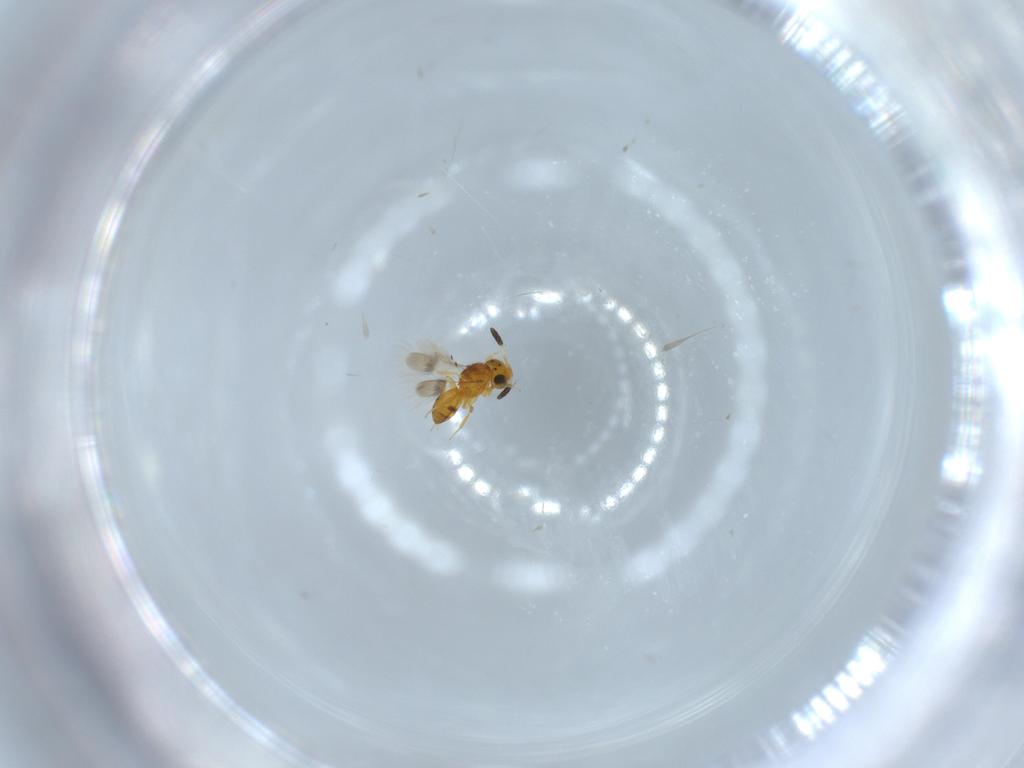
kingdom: Animalia
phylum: Arthropoda
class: Insecta
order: Hymenoptera
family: Scelionidae
